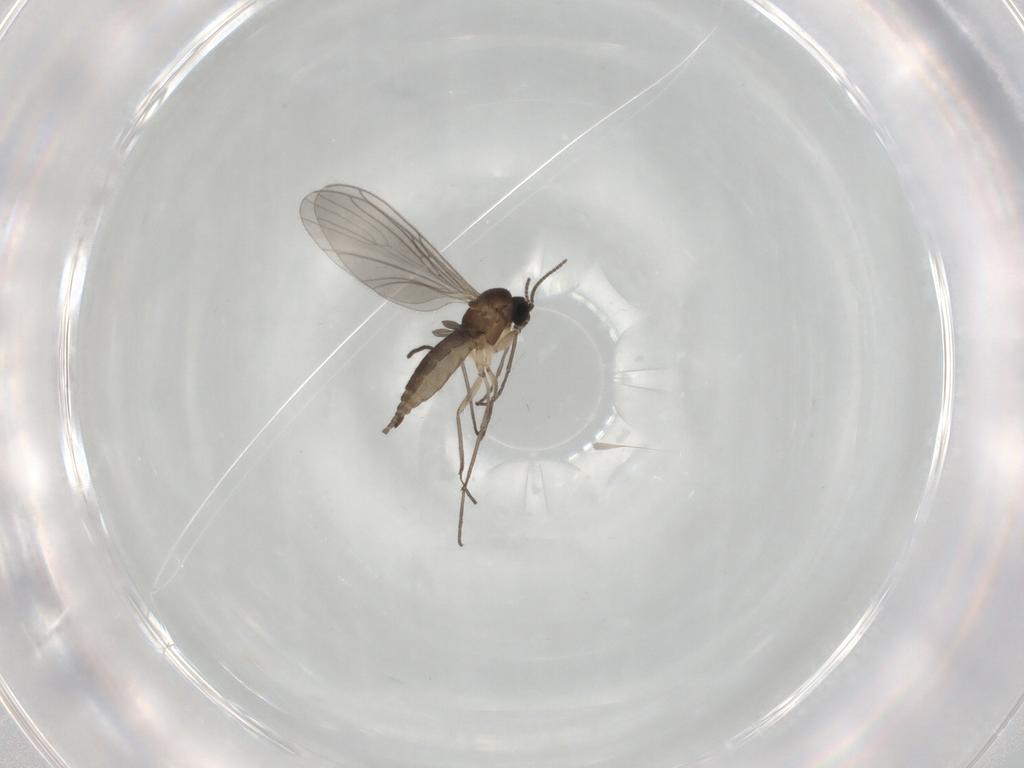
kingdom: Animalia
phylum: Arthropoda
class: Insecta
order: Diptera
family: Sciaridae
